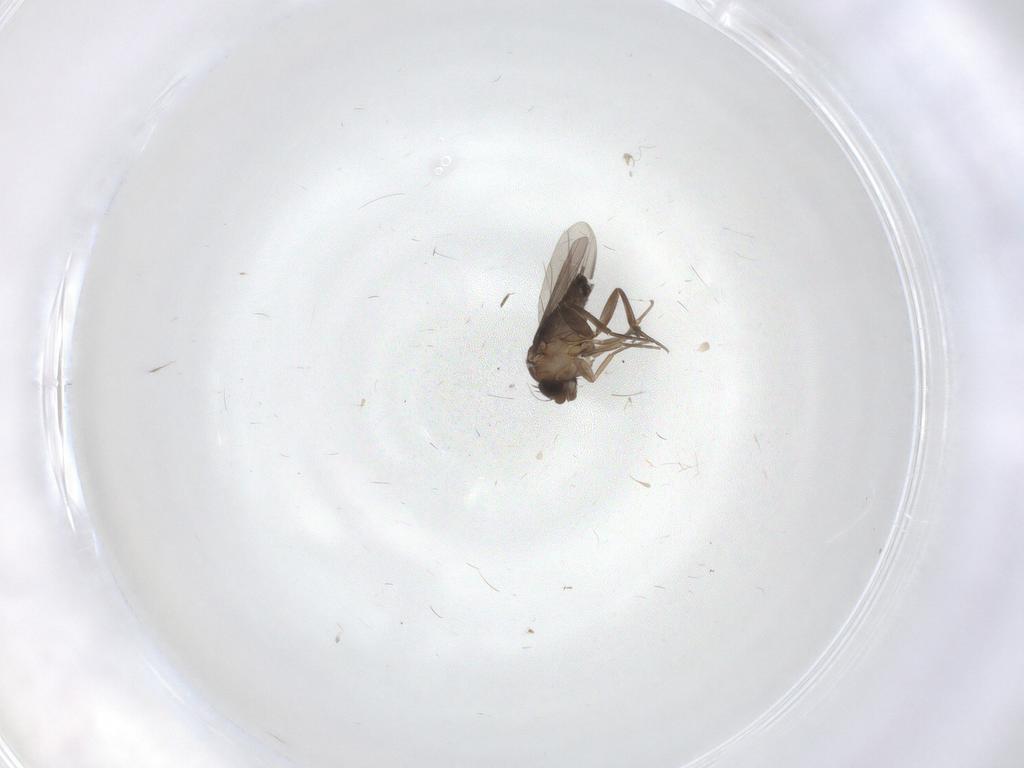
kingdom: Animalia
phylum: Arthropoda
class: Insecta
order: Diptera
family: Phoridae
